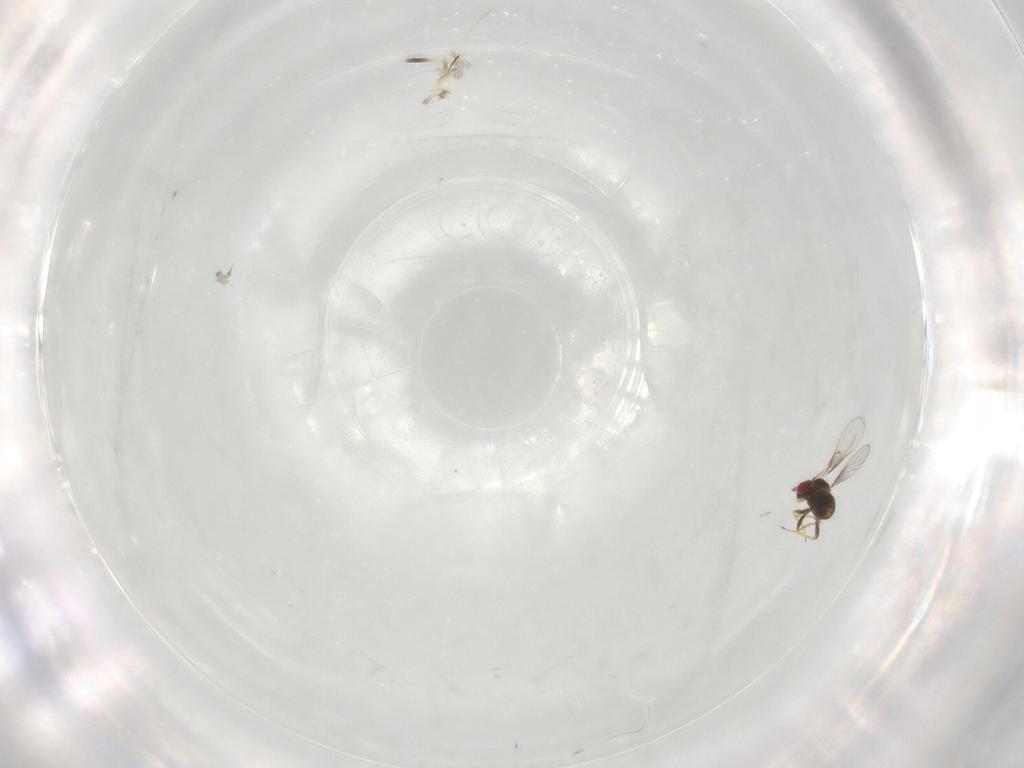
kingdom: Animalia
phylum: Arthropoda
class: Insecta
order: Hymenoptera
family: Trichogrammatidae
